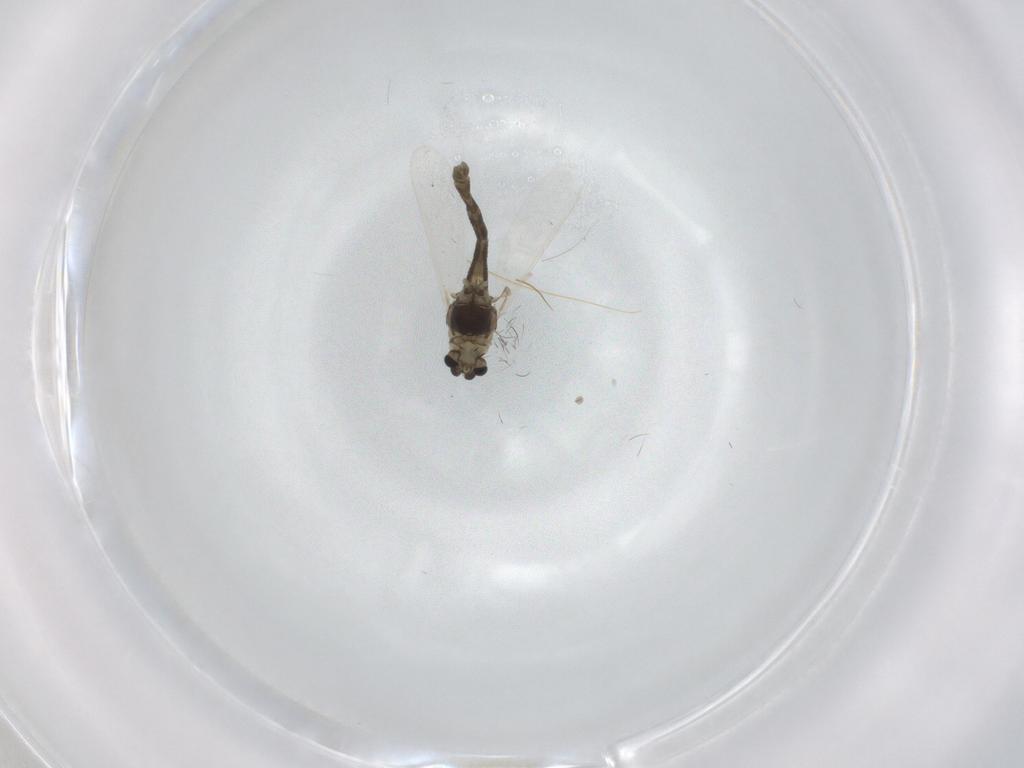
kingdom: Animalia
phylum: Arthropoda
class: Insecta
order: Diptera
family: Chironomidae
